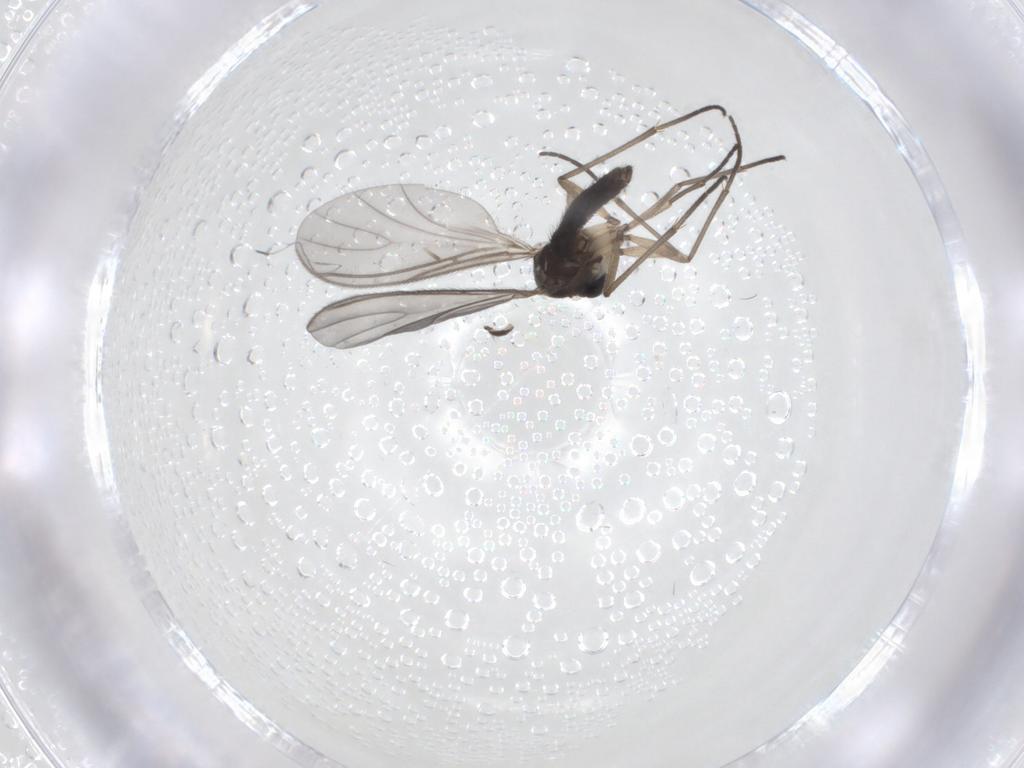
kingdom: Animalia
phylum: Arthropoda
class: Insecta
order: Diptera
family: Sciaridae
